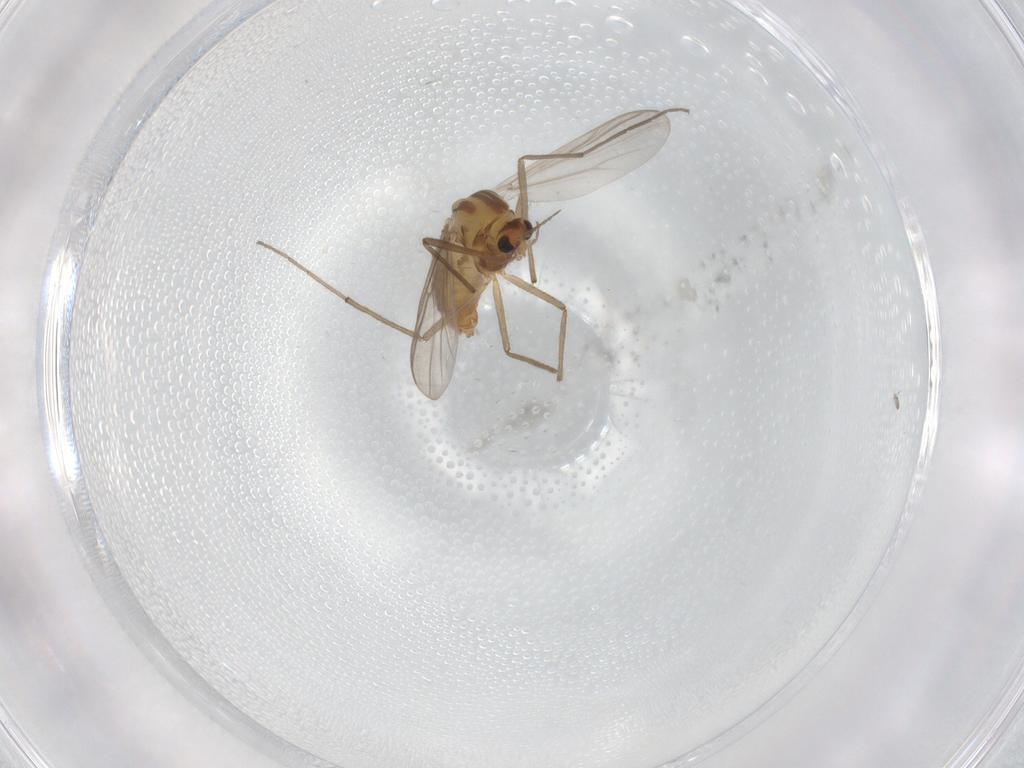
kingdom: Animalia
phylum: Arthropoda
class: Insecta
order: Diptera
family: Chironomidae
